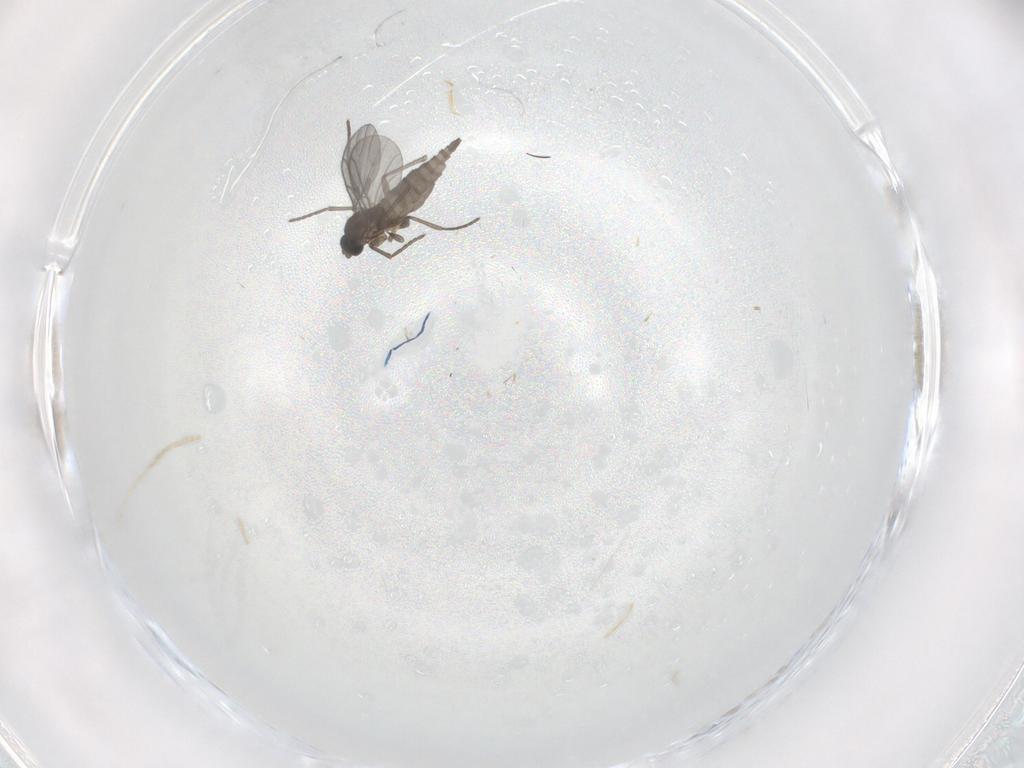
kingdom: Animalia
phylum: Arthropoda
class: Insecta
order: Diptera
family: Sciaridae
